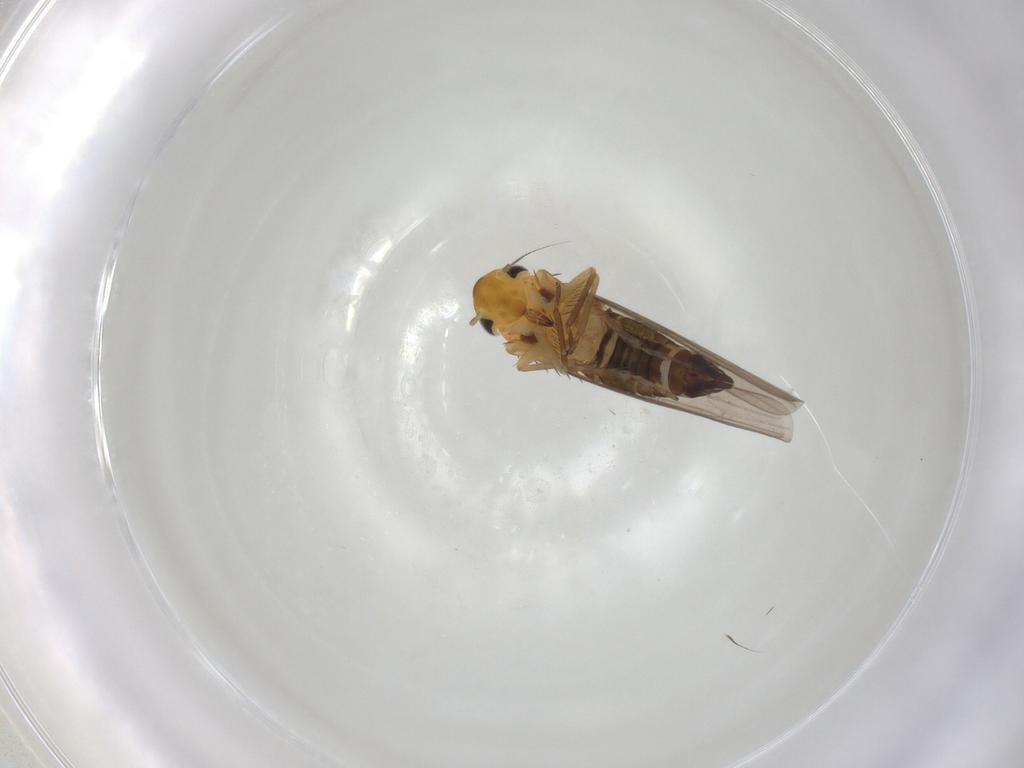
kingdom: Animalia
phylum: Arthropoda
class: Insecta
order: Hemiptera
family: Cicadellidae
